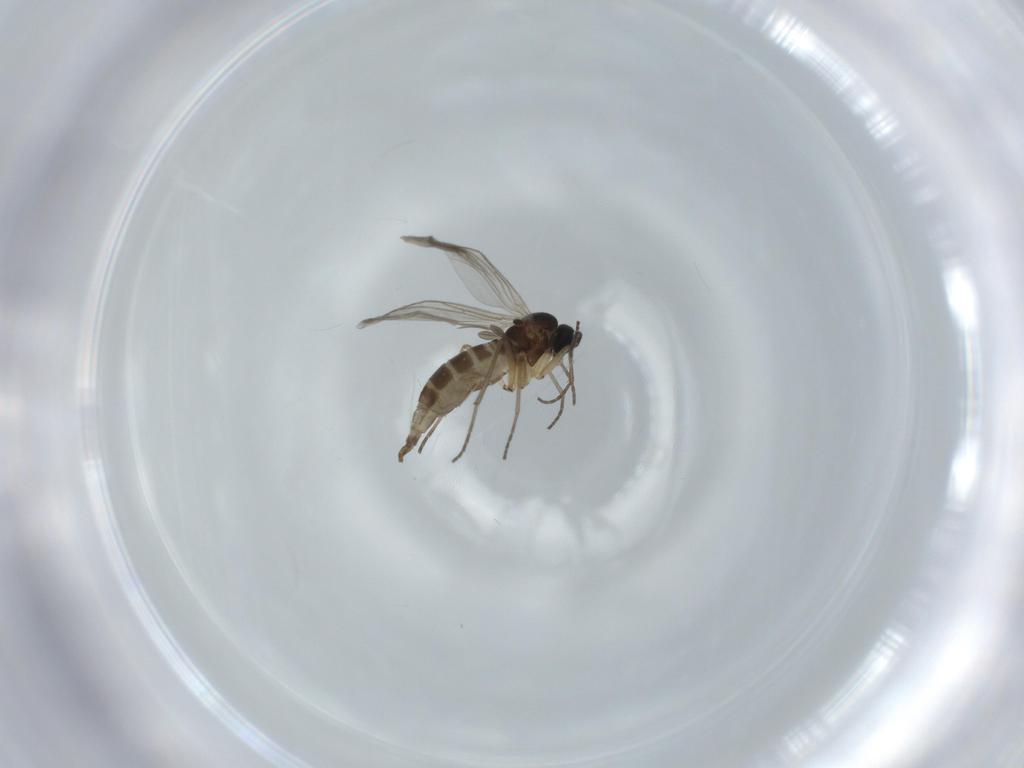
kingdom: Animalia
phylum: Arthropoda
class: Insecta
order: Diptera
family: Sciaridae
